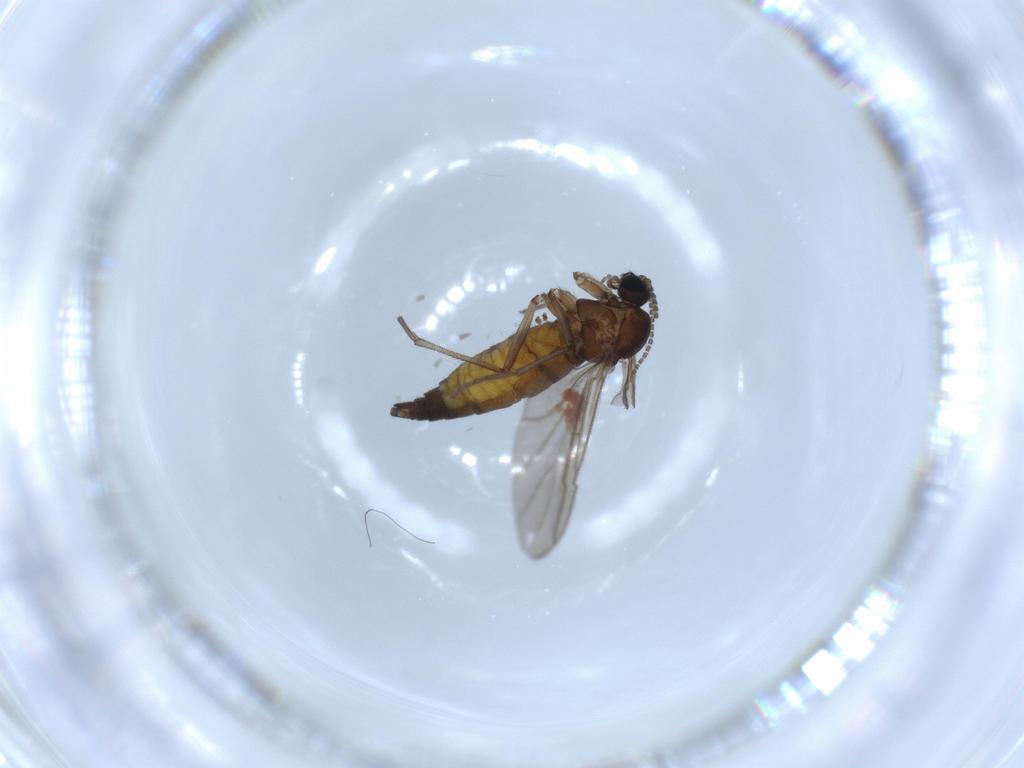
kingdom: Animalia
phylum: Arthropoda
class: Insecta
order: Diptera
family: Sciaridae
